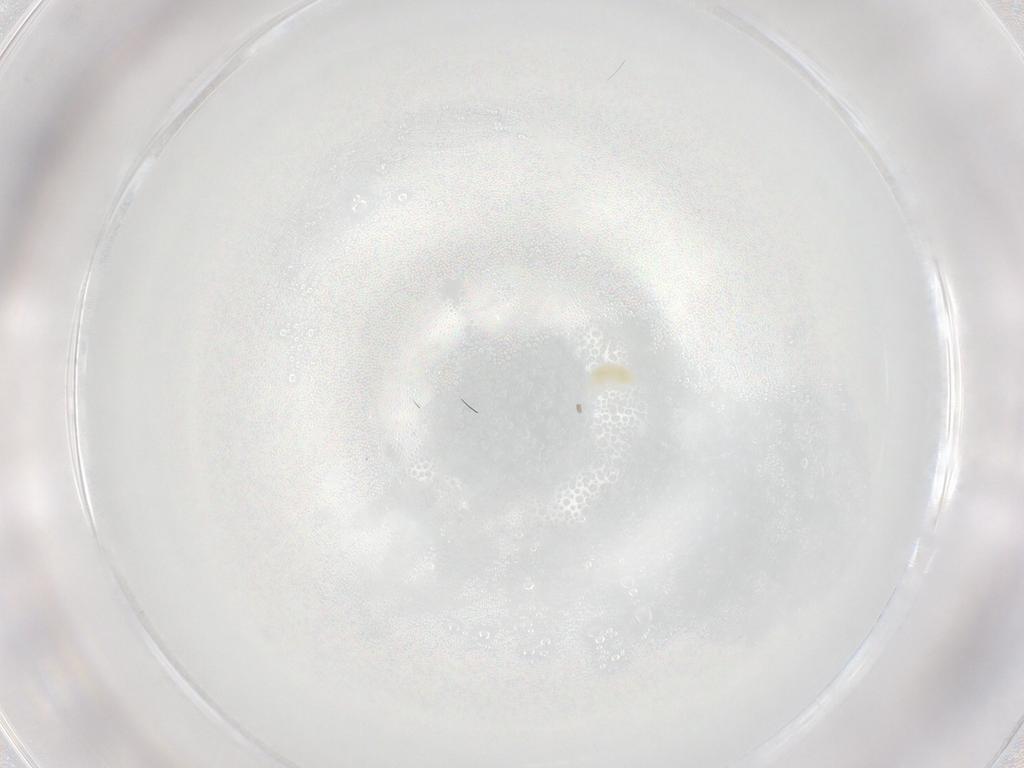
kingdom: Animalia
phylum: Arthropoda
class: Arachnida
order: Trombidiformes
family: Eupodidae
